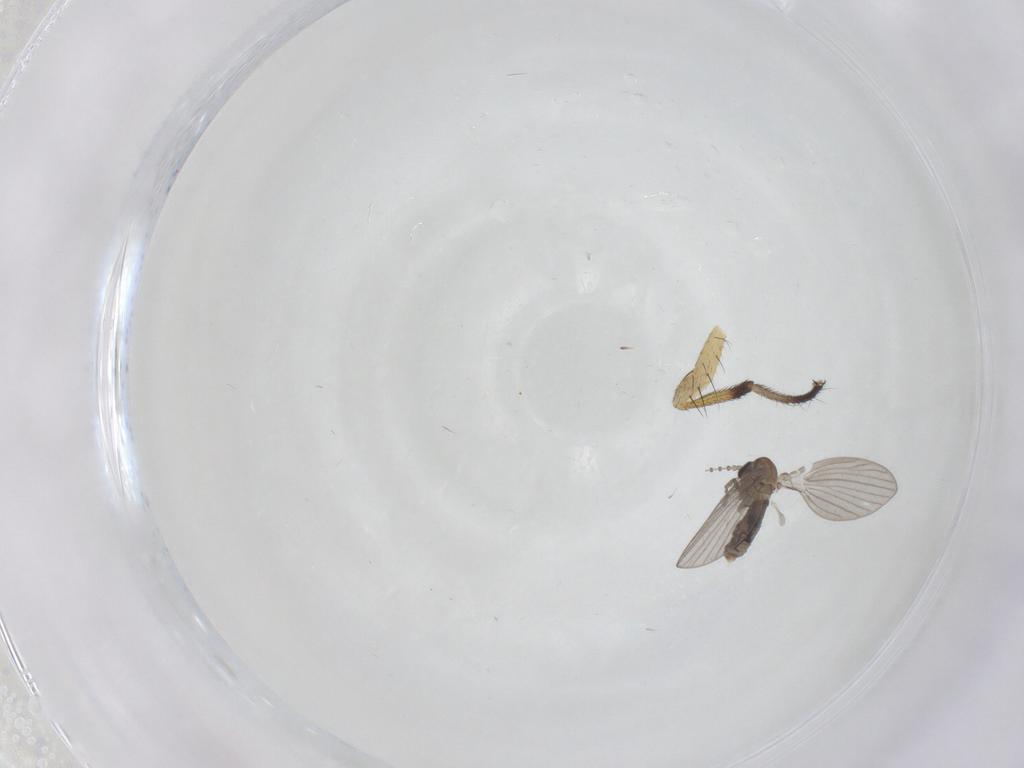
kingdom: Animalia
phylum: Arthropoda
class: Insecta
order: Diptera
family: Psychodidae
